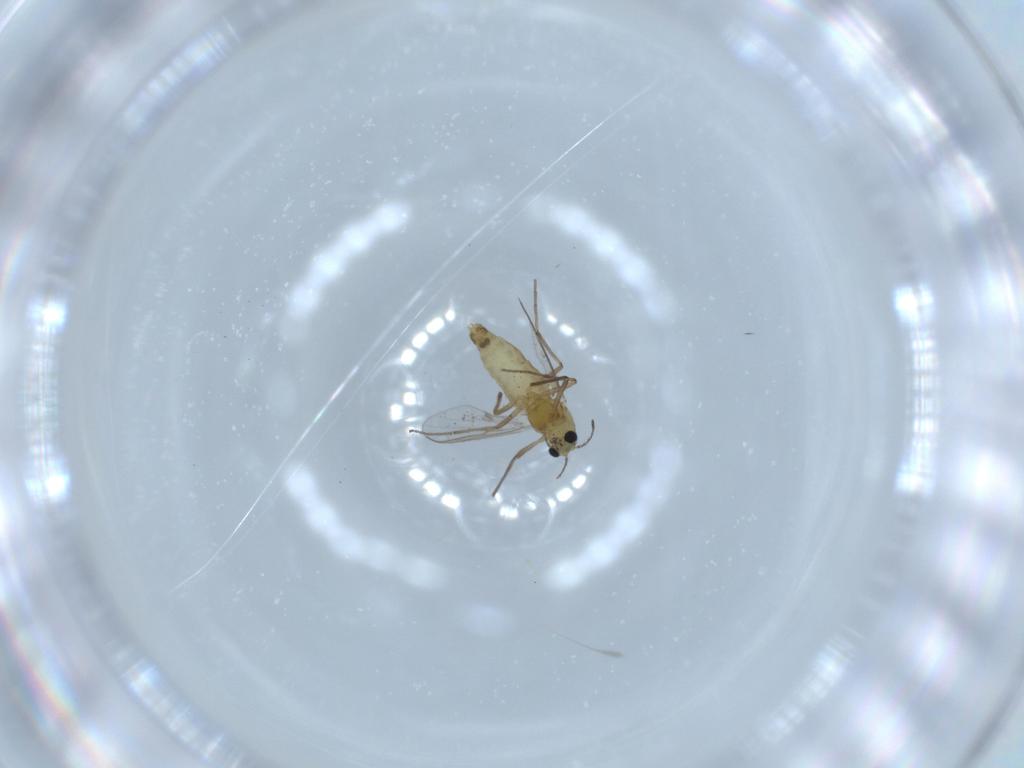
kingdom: Animalia
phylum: Arthropoda
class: Insecta
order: Diptera
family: Chironomidae
